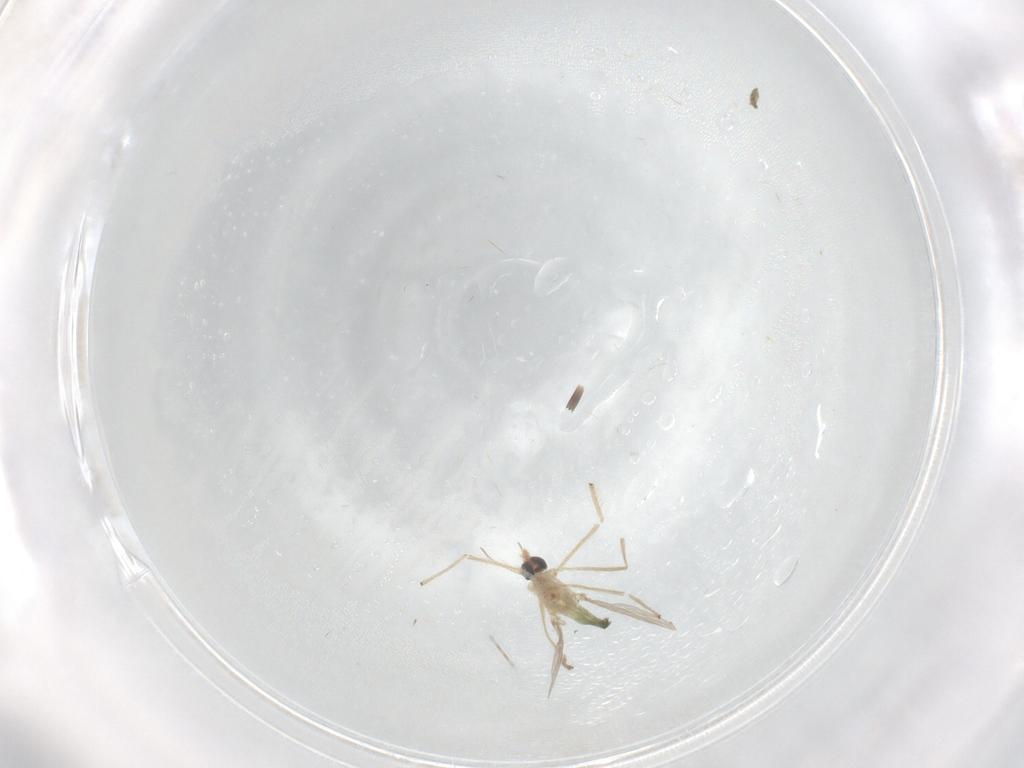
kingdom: Animalia
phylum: Arthropoda
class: Insecta
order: Diptera
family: Chironomidae
